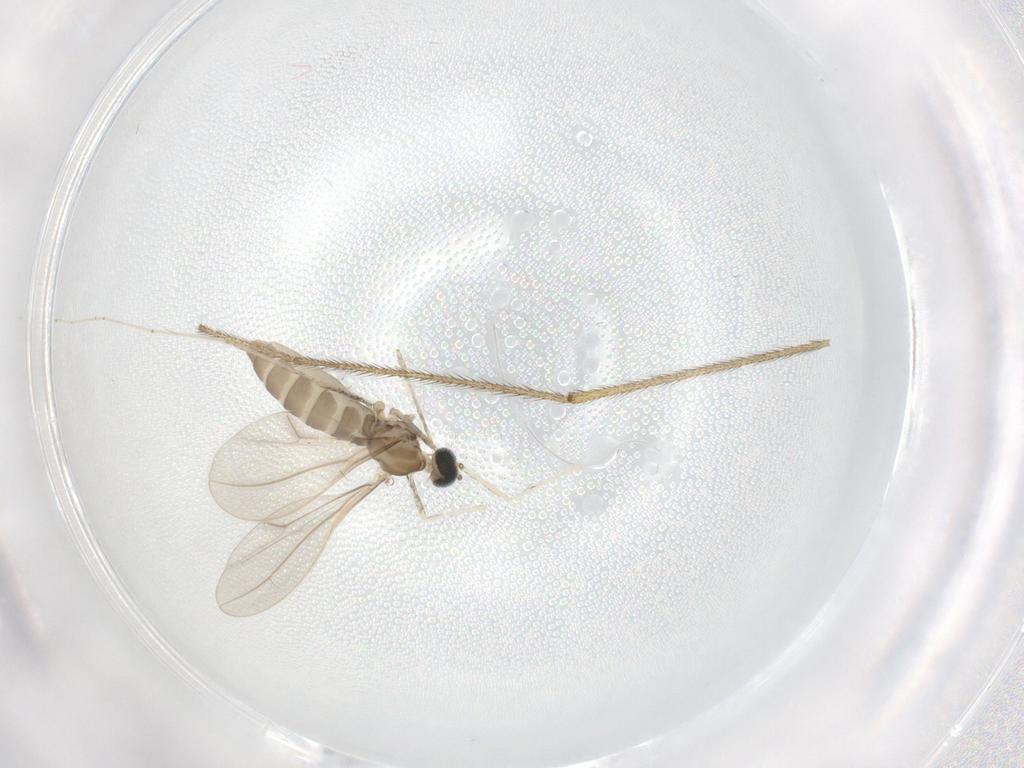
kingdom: Animalia
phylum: Arthropoda
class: Insecta
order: Diptera
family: Cecidomyiidae
